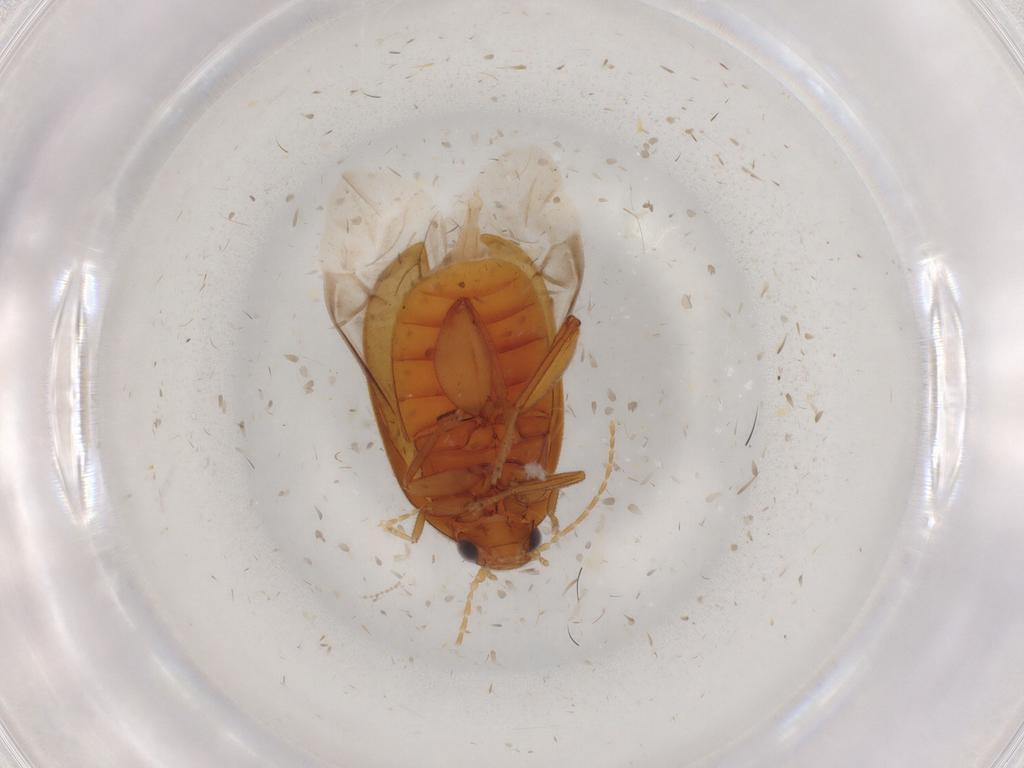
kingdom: Animalia
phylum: Arthropoda
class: Insecta
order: Coleoptera
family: Scirtidae
